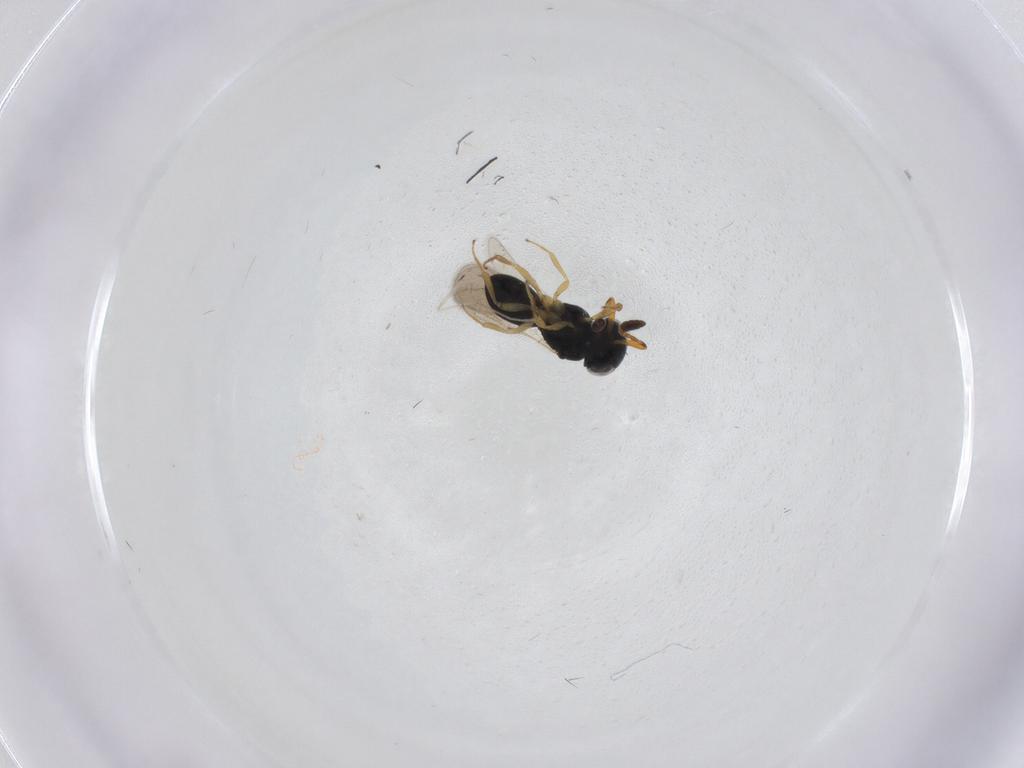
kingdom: Animalia
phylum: Arthropoda
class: Insecta
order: Hymenoptera
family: Scelionidae
